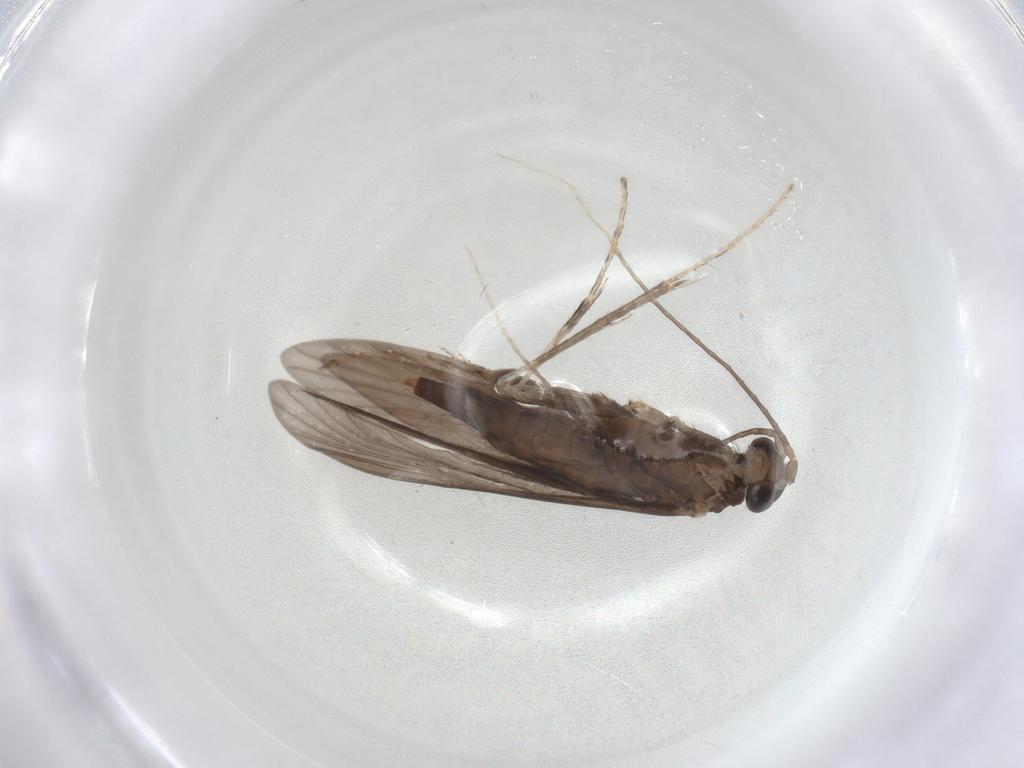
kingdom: Animalia
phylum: Arthropoda
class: Insecta
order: Trichoptera
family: Xiphocentronidae
